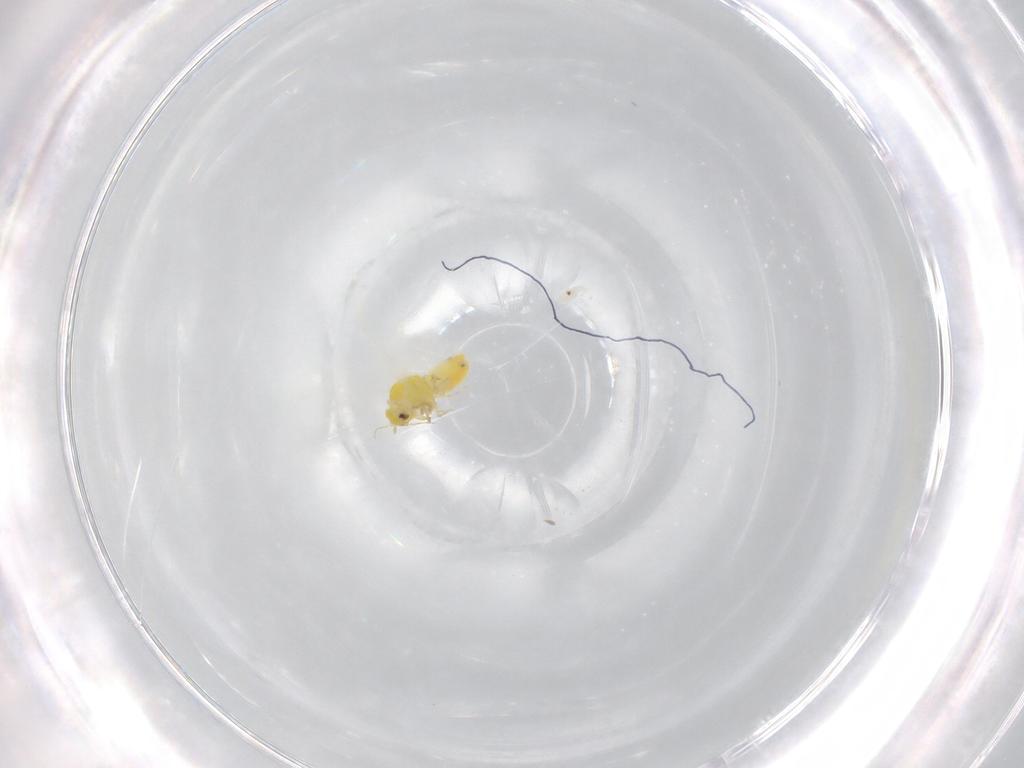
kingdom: Animalia
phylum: Arthropoda
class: Insecta
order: Hemiptera
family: Aleyrodidae
